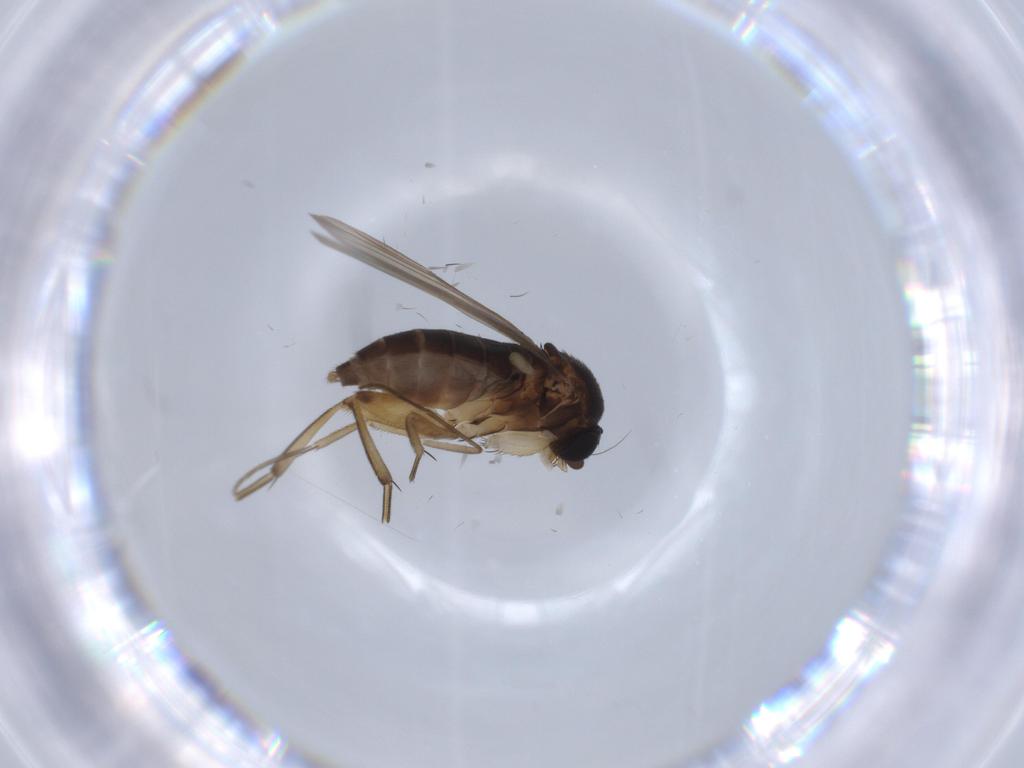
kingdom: Animalia
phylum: Arthropoda
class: Insecta
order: Diptera
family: Phoridae
